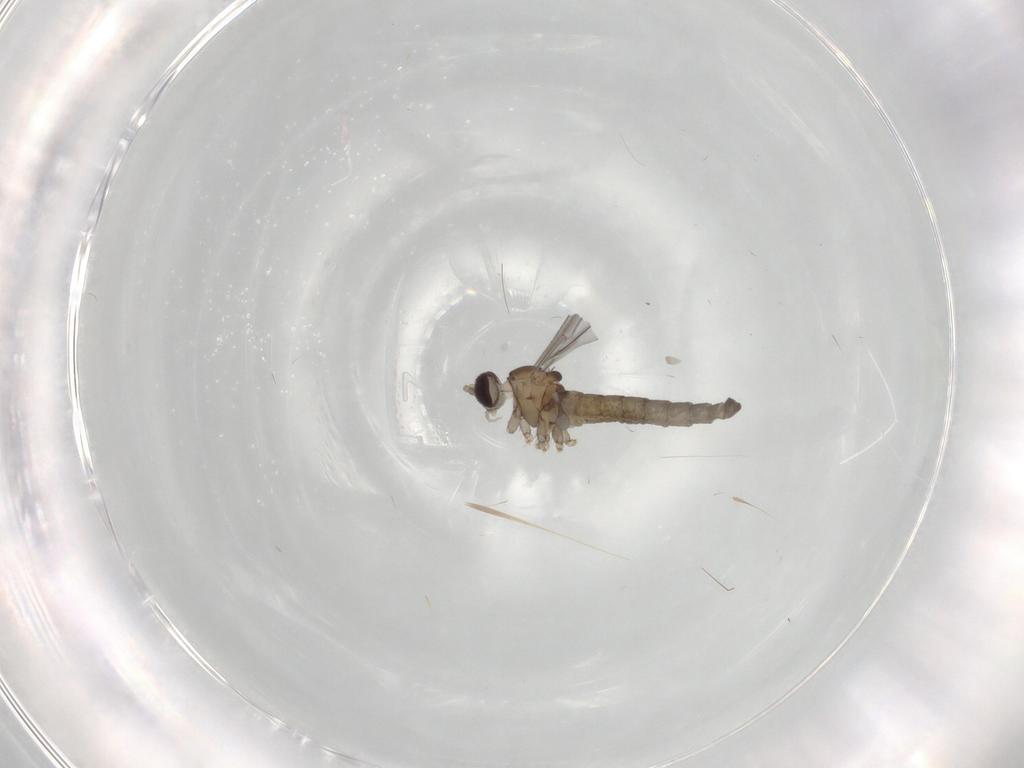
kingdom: Animalia
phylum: Arthropoda
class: Insecta
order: Diptera
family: Cecidomyiidae
